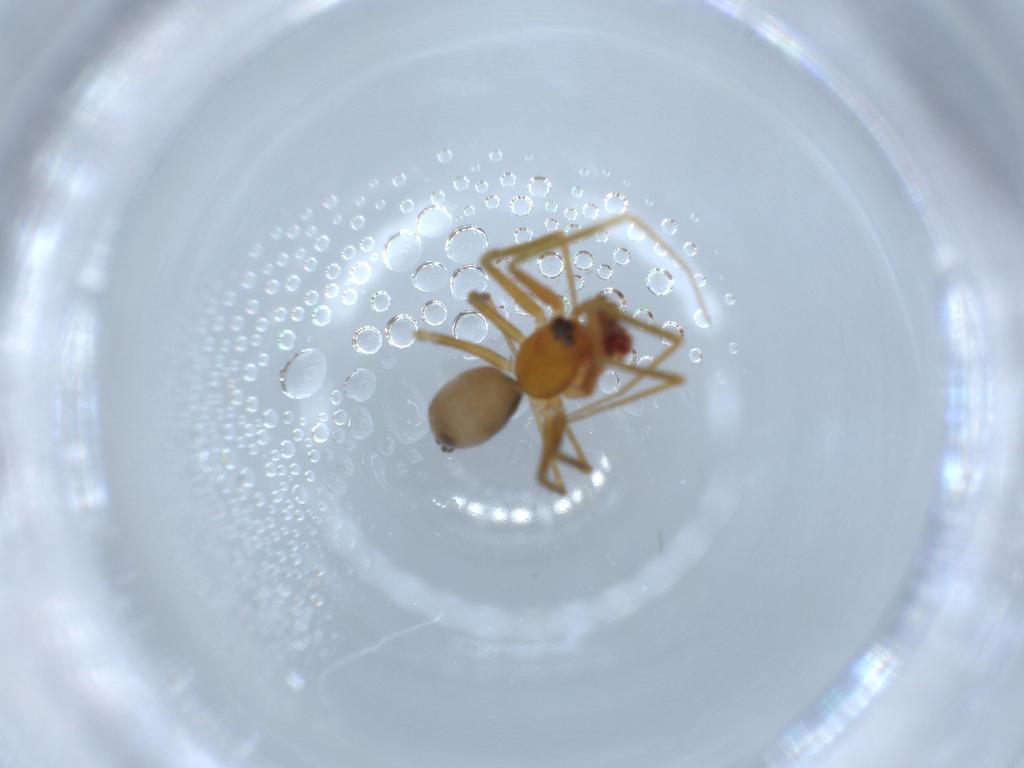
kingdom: Animalia
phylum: Arthropoda
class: Arachnida
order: Araneae
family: Linyphiidae
